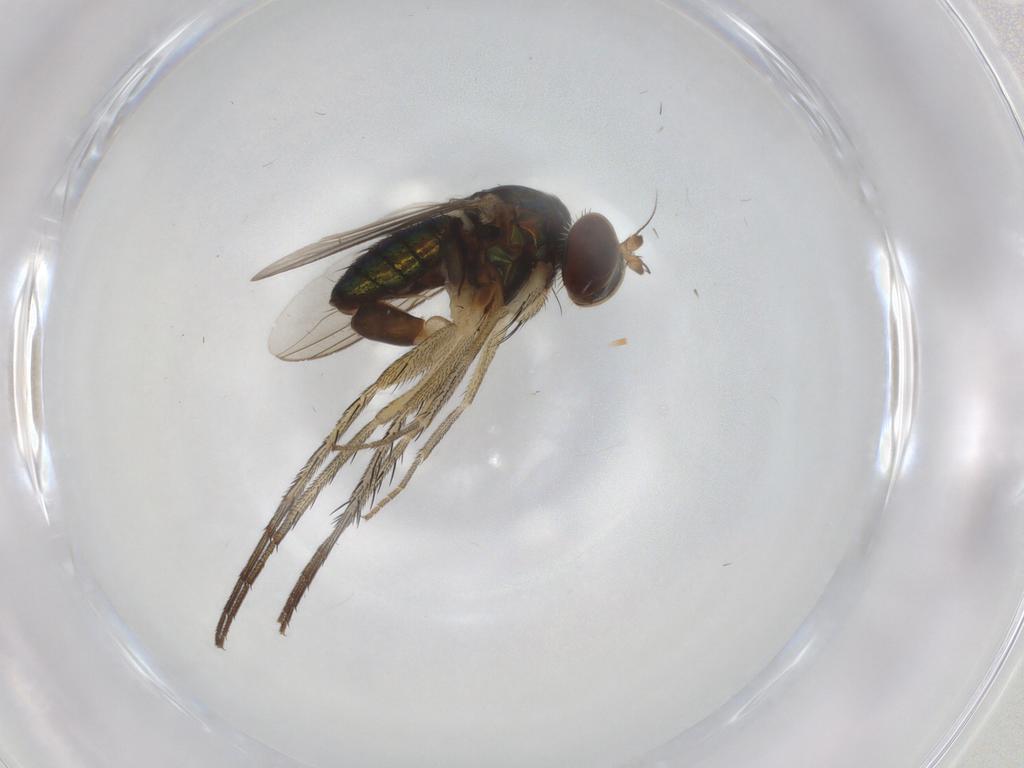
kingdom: Animalia
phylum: Arthropoda
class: Insecta
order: Diptera
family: Dolichopodidae
